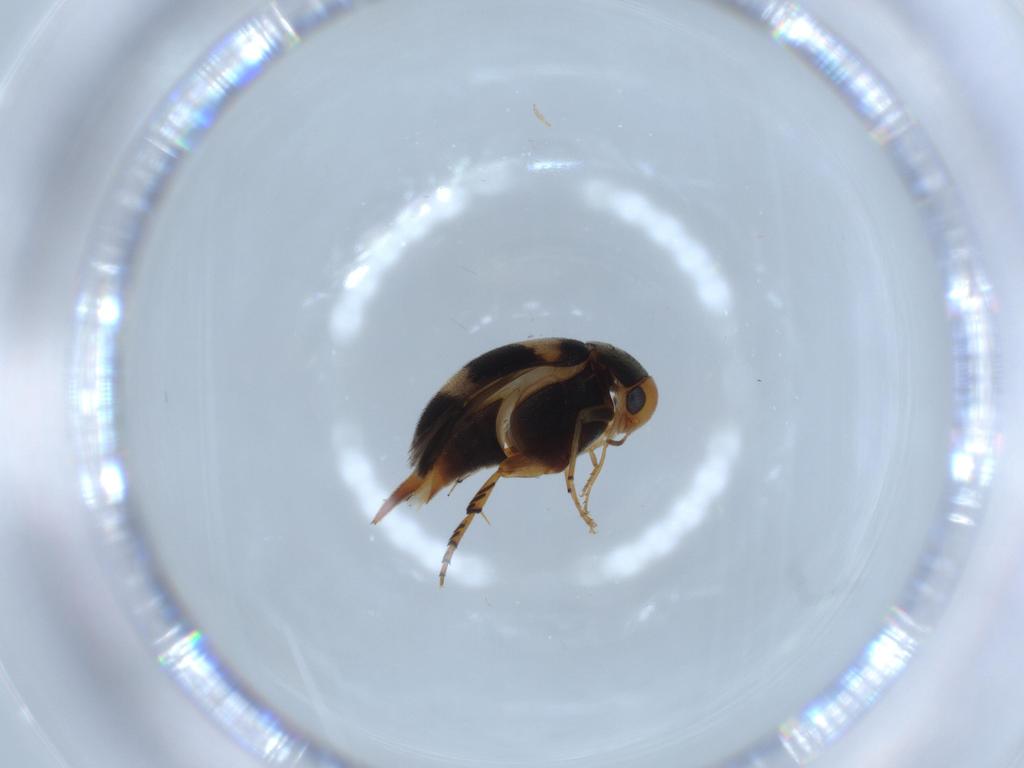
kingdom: Animalia
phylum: Arthropoda
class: Insecta
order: Coleoptera
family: Mordellidae
